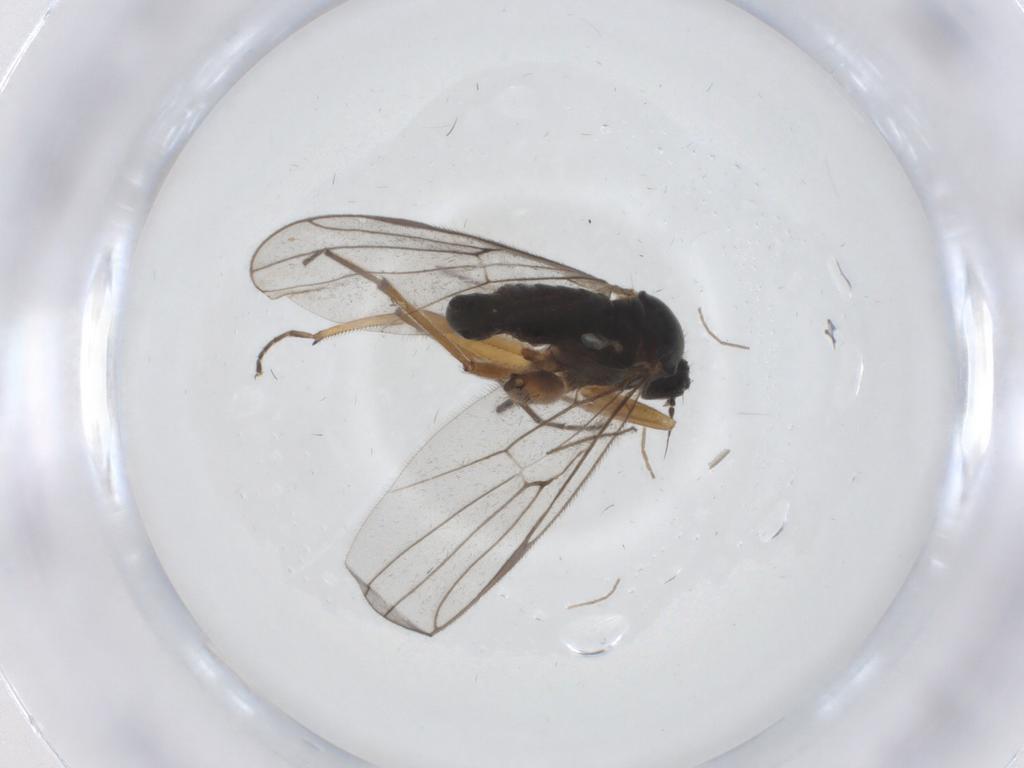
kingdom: Animalia
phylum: Arthropoda
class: Insecta
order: Diptera
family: Hybotidae
